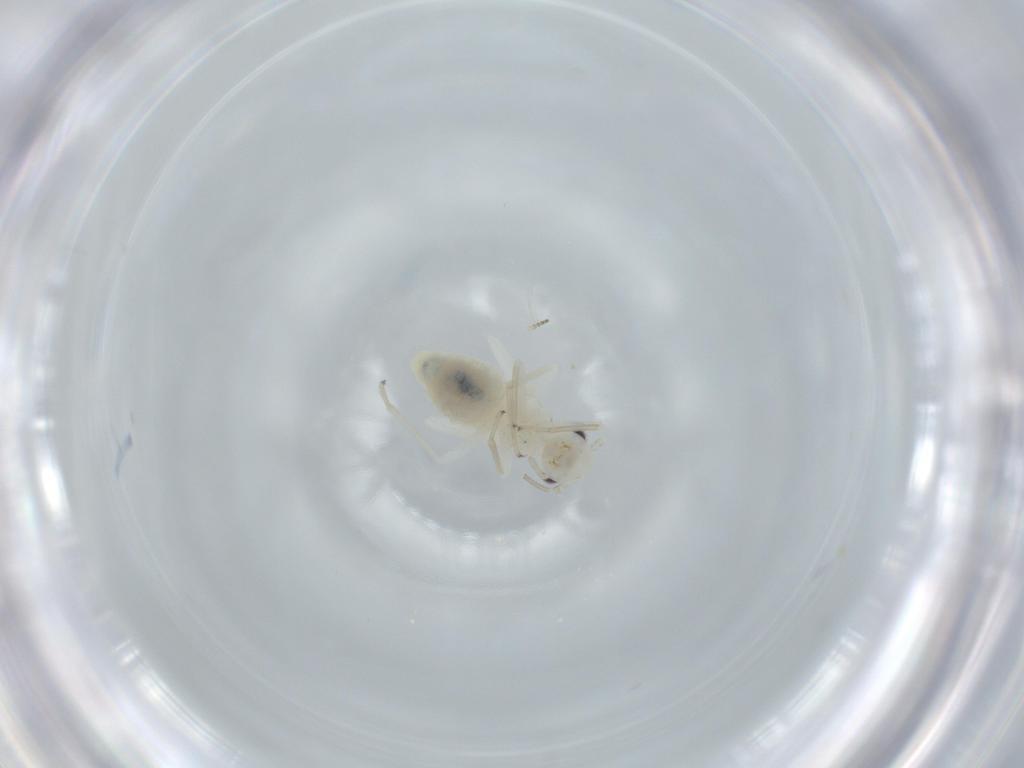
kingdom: Animalia
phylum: Arthropoda
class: Insecta
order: Psocodea
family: Caeciliusidae
